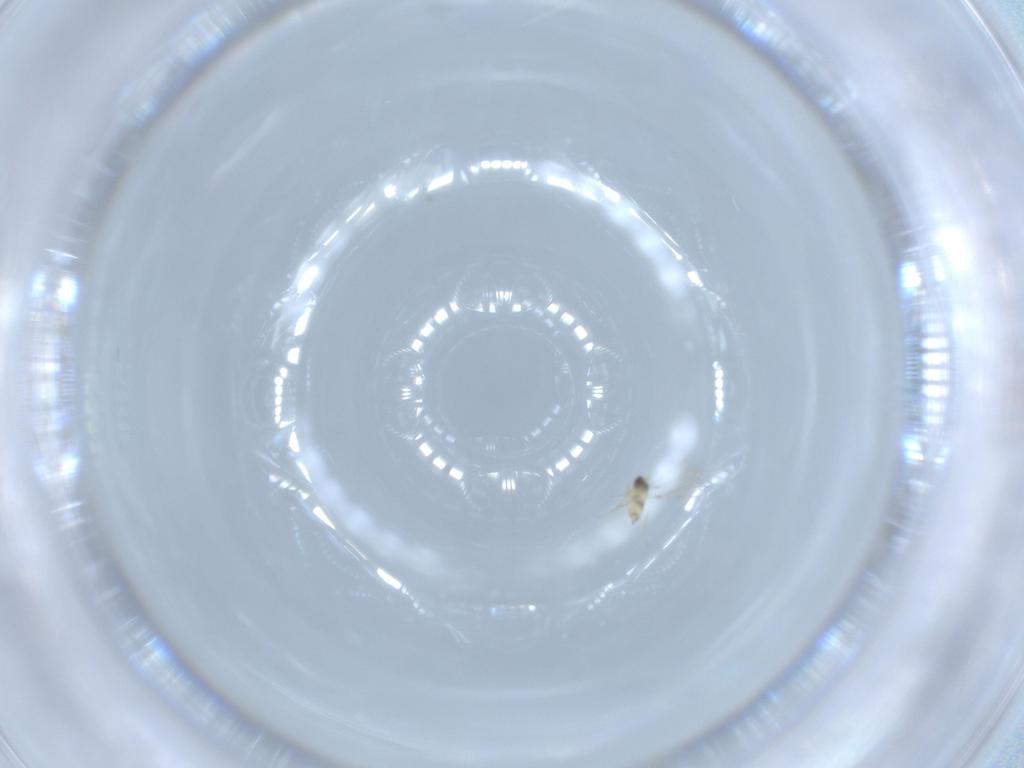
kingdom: Animalia
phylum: Arthropoda
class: Insecta
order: Hymenoptera
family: Mymaridae
